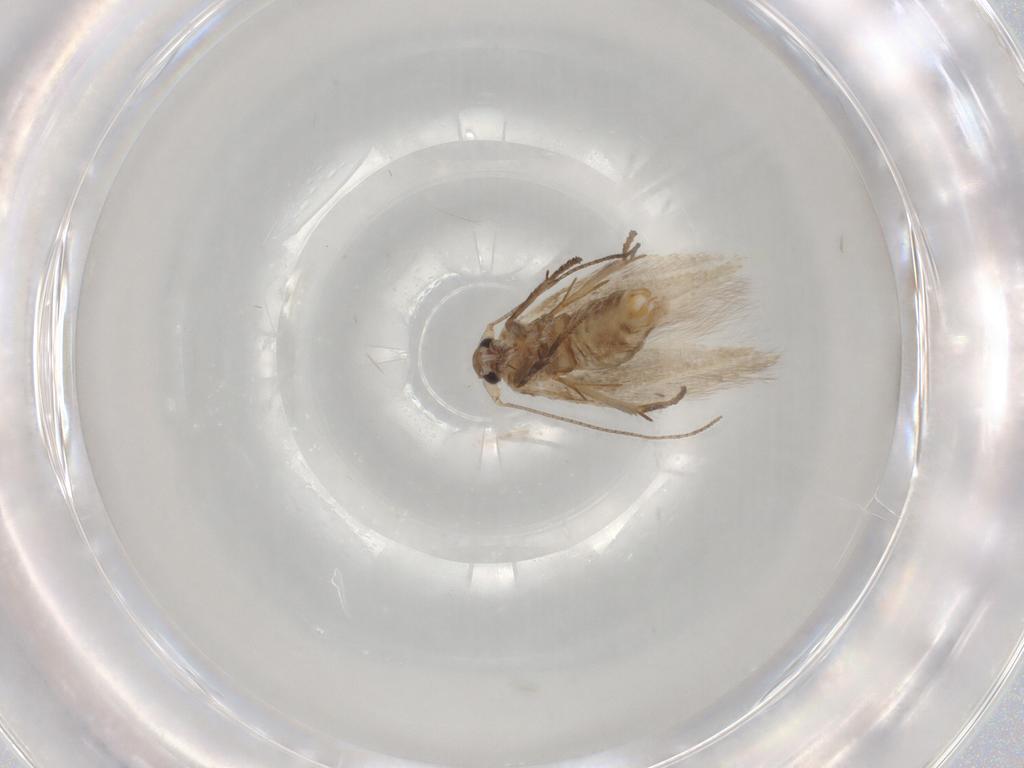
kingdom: Animalia
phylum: Arthropoda
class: Insecta
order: Lepidoptera
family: Bucculatricidae
